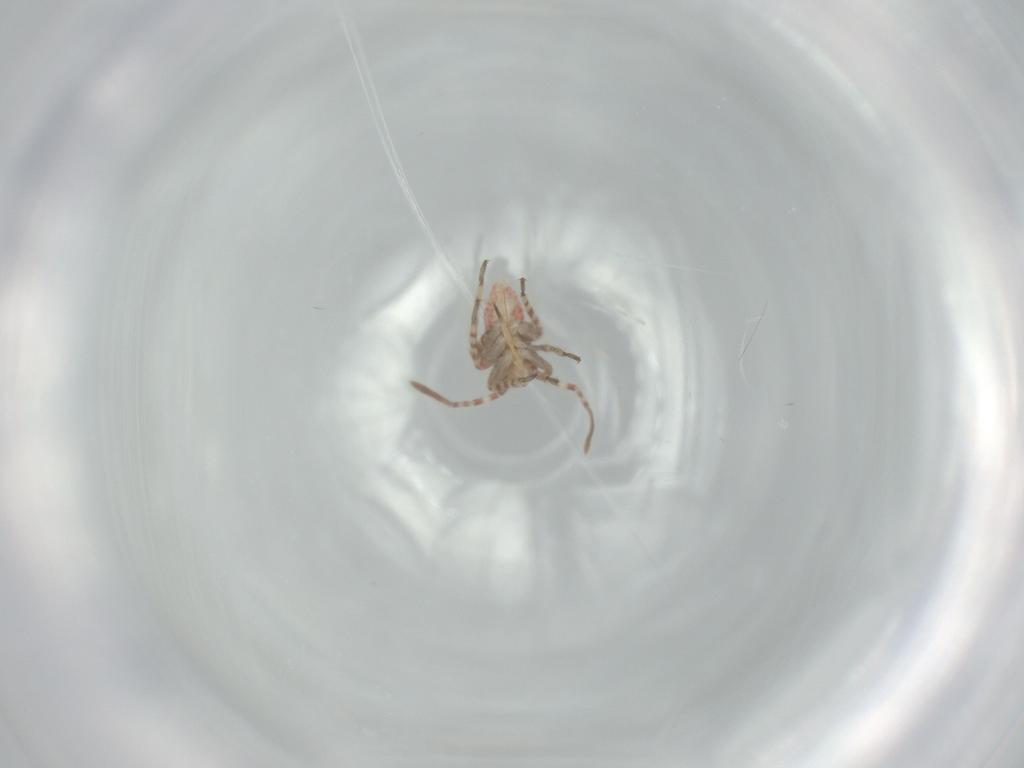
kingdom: Animalia
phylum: Arthropoda
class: Insecta
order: Hemiptera
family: Miridae
